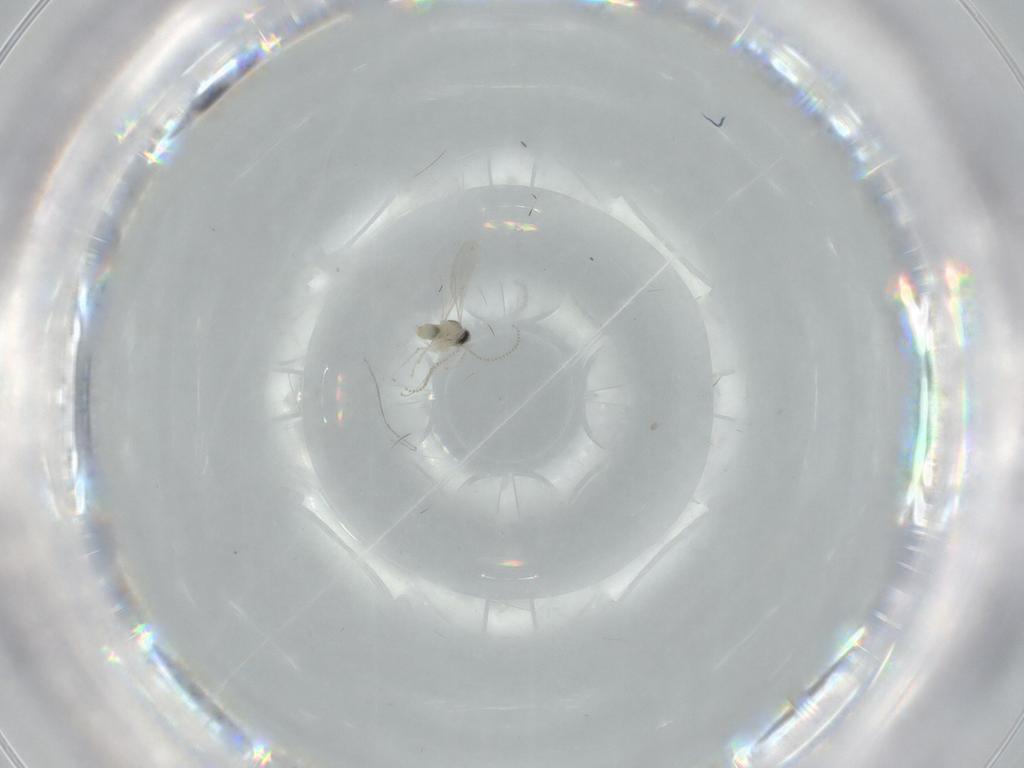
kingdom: Animalia
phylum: Arthropoda
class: Insecta
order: Diptera
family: Cecidomyiidae
